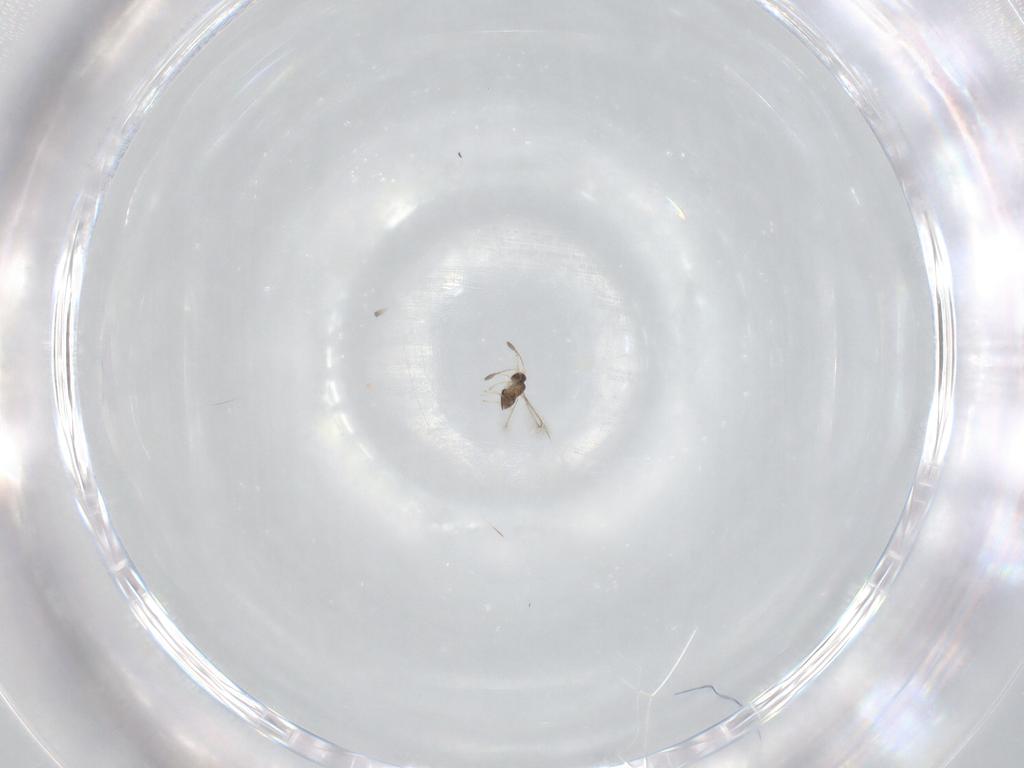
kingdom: Animalia
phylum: Arthropoda
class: Insecta
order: Hymenoptera
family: Mymaridae
